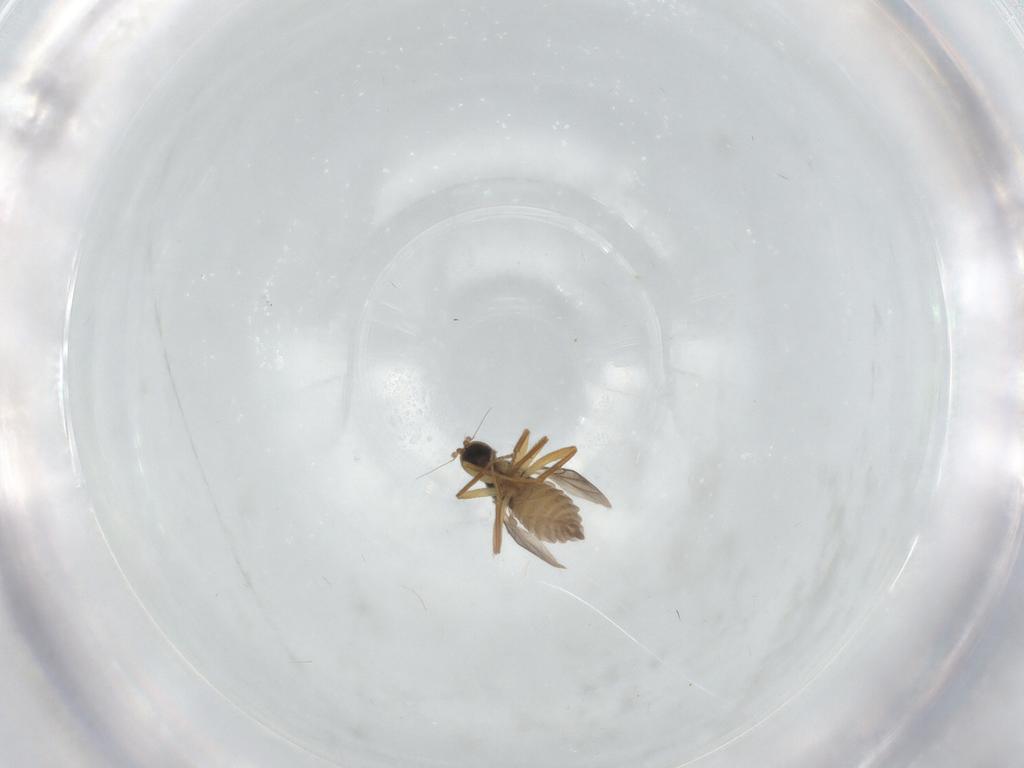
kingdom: Animalia
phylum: Arthropoda
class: Insecta
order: Diptera
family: Hybotidae
